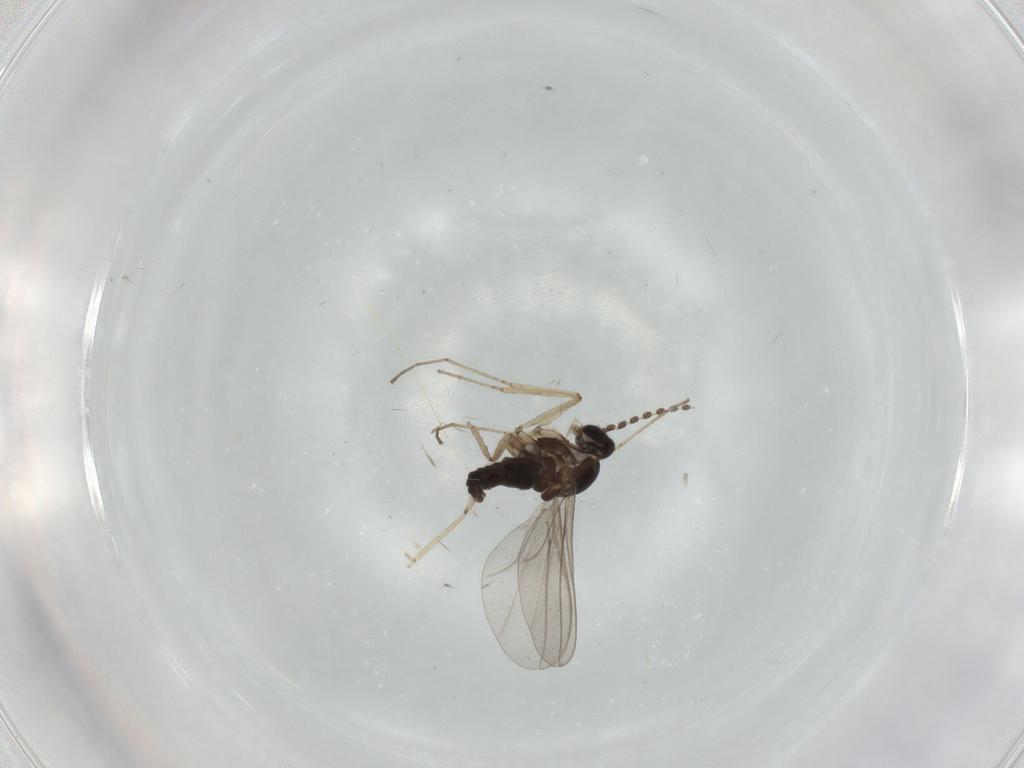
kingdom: Animalia
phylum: Arthropoda
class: Insecta
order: Diptera
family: Cecidomyiidae
